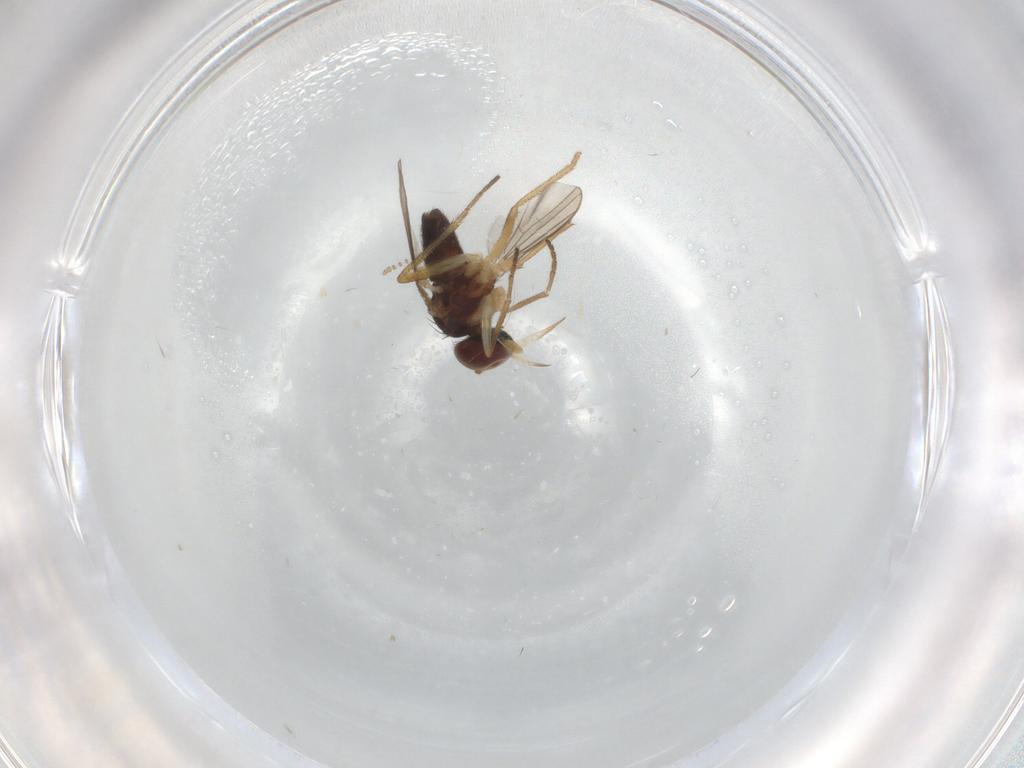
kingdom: Animalia
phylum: Arthropoda
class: Insecta
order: Diptera
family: Dolichopodidae
